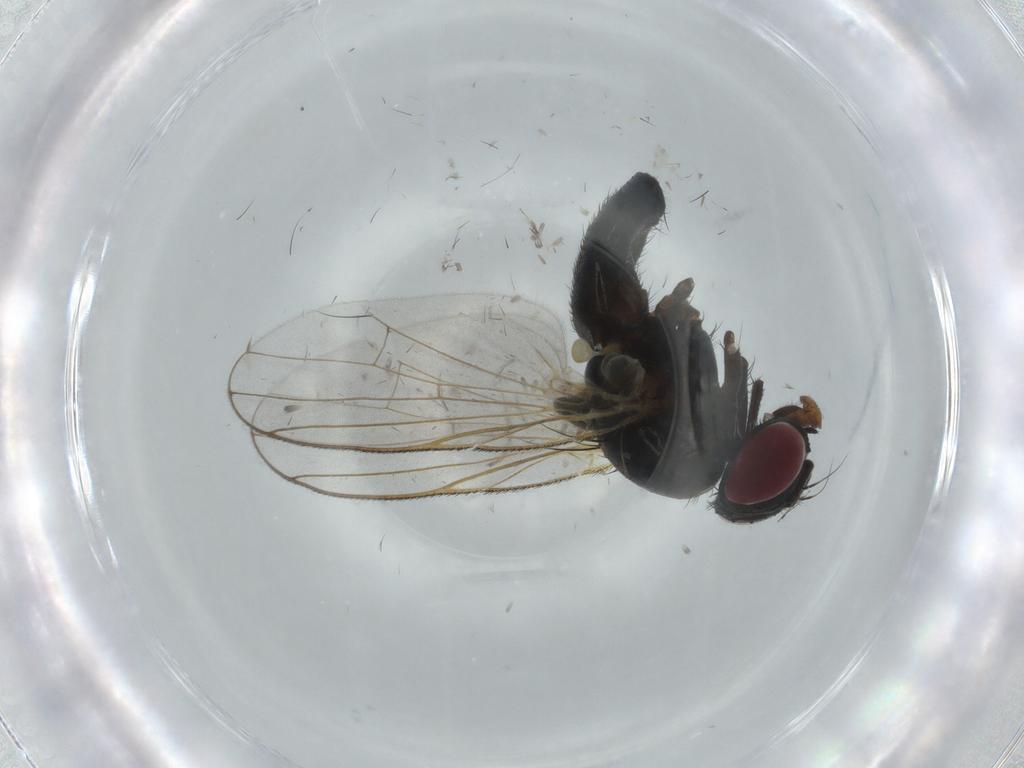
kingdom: Animalia
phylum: Arthropoda
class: Insecta
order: Diptera
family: Fannia
